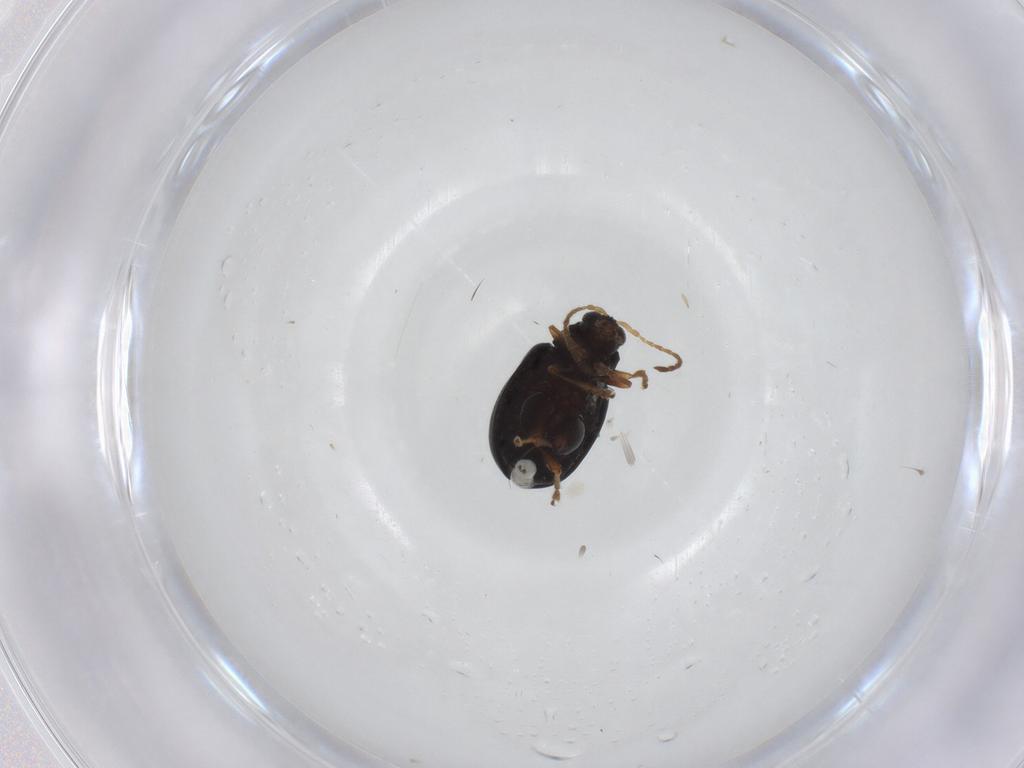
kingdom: Animalia
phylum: Arthropoda
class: Insecta
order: Coleoptera
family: Chrysomelidae
